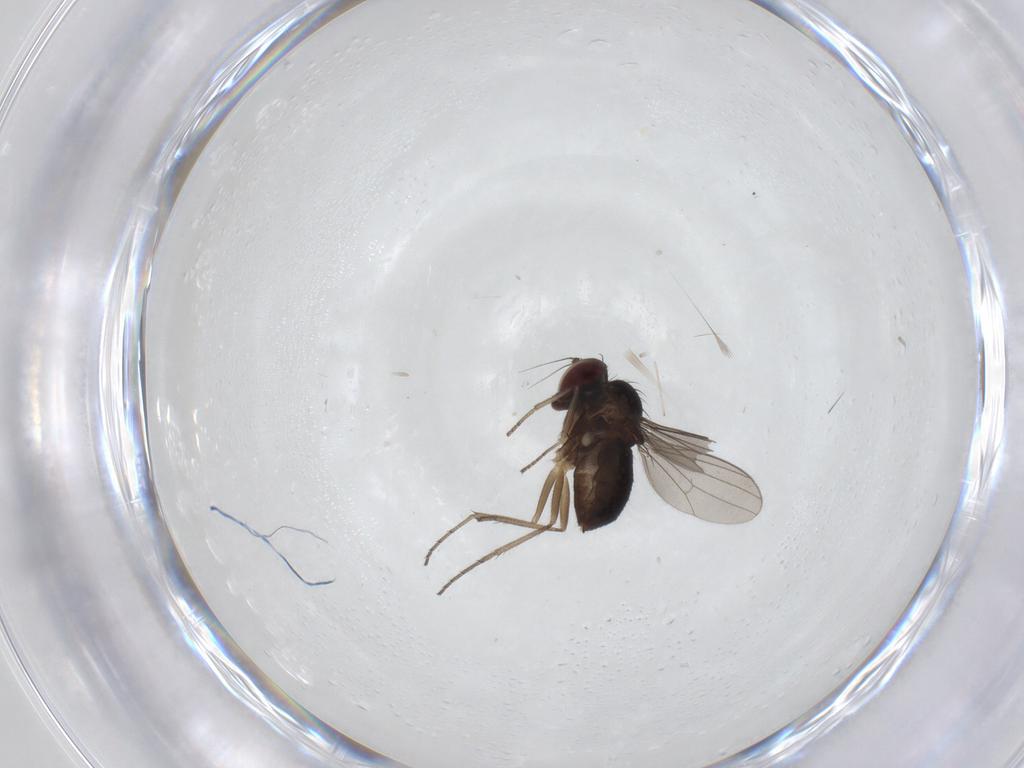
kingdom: Animalia
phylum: Arthropoda
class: Insecta
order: Diptera
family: Cecidomyiidae
